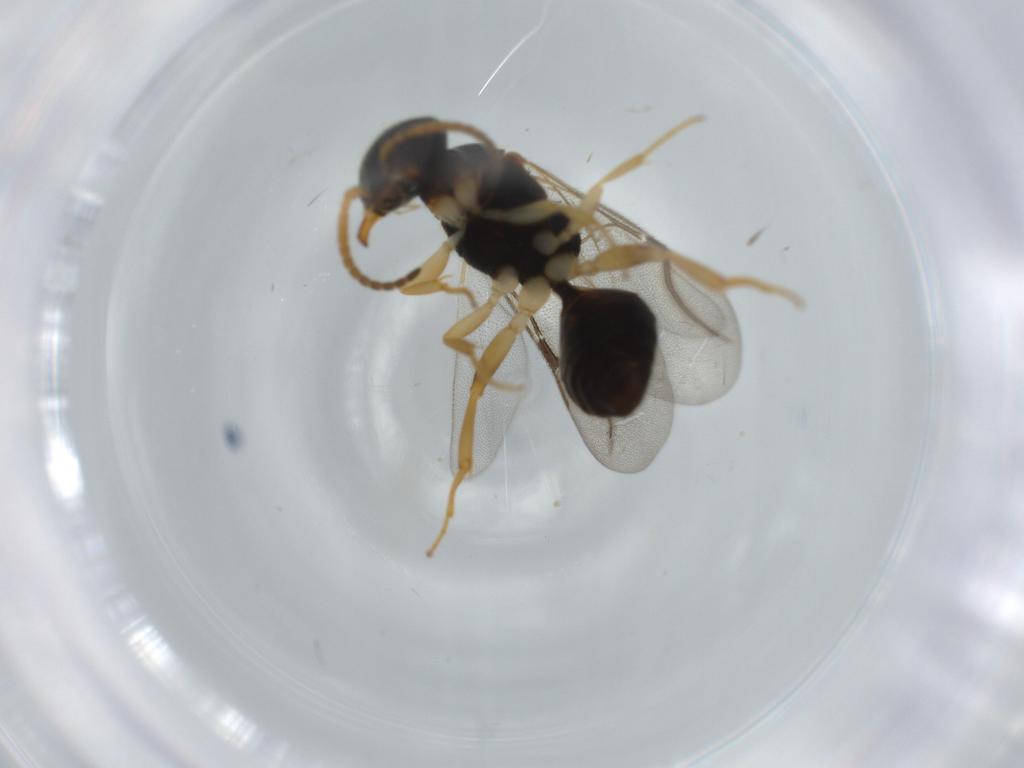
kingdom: Animalia
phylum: Arthropoda
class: Insecta
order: Hymenoptera
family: Bethylidae
